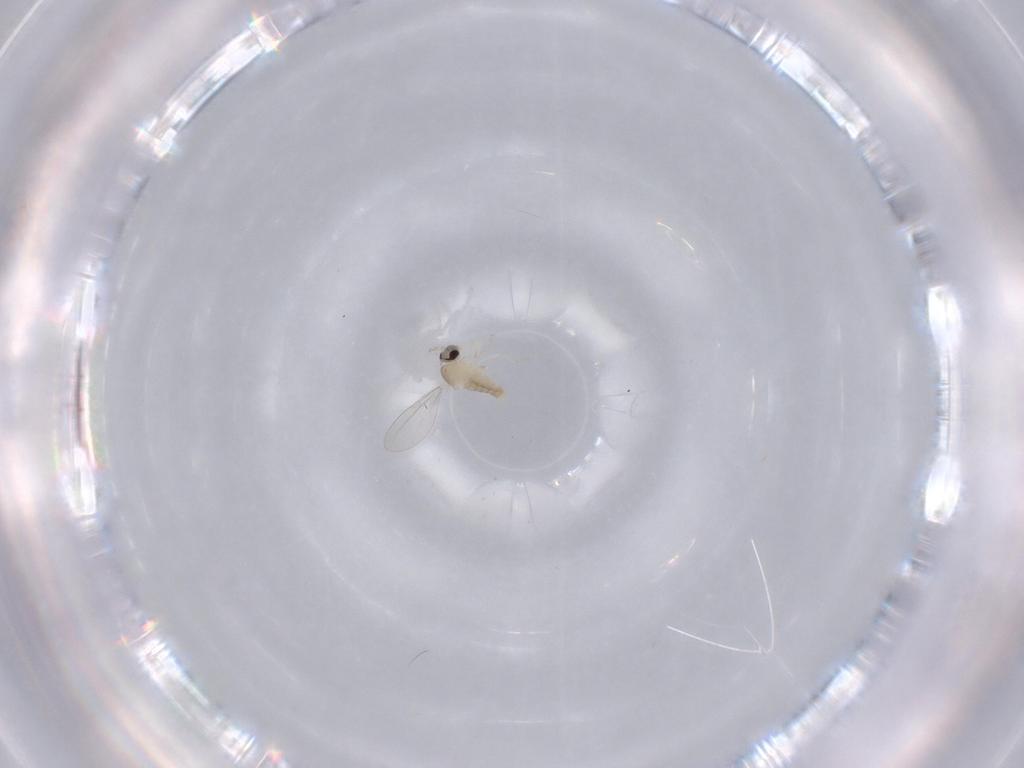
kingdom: Animalia
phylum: Arthropoda
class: Insecta
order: Diptera
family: Cecidomyiidae
